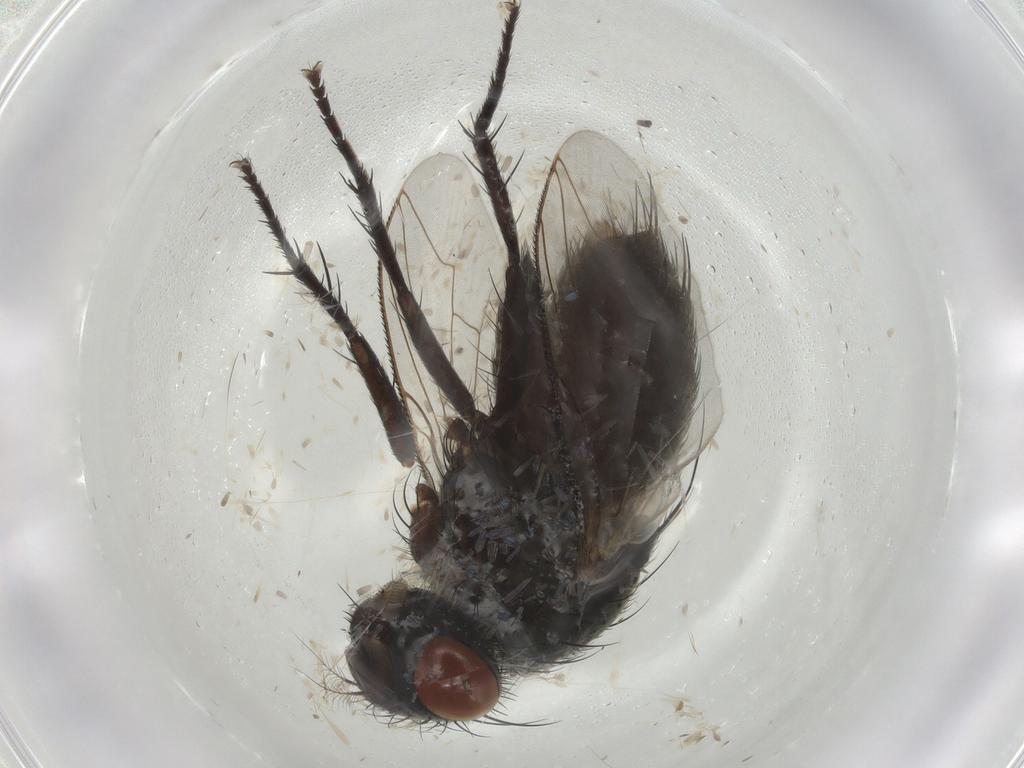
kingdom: Animalia
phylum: Arthropoda
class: Insecta
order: Diptera
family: Sarcophagidae
